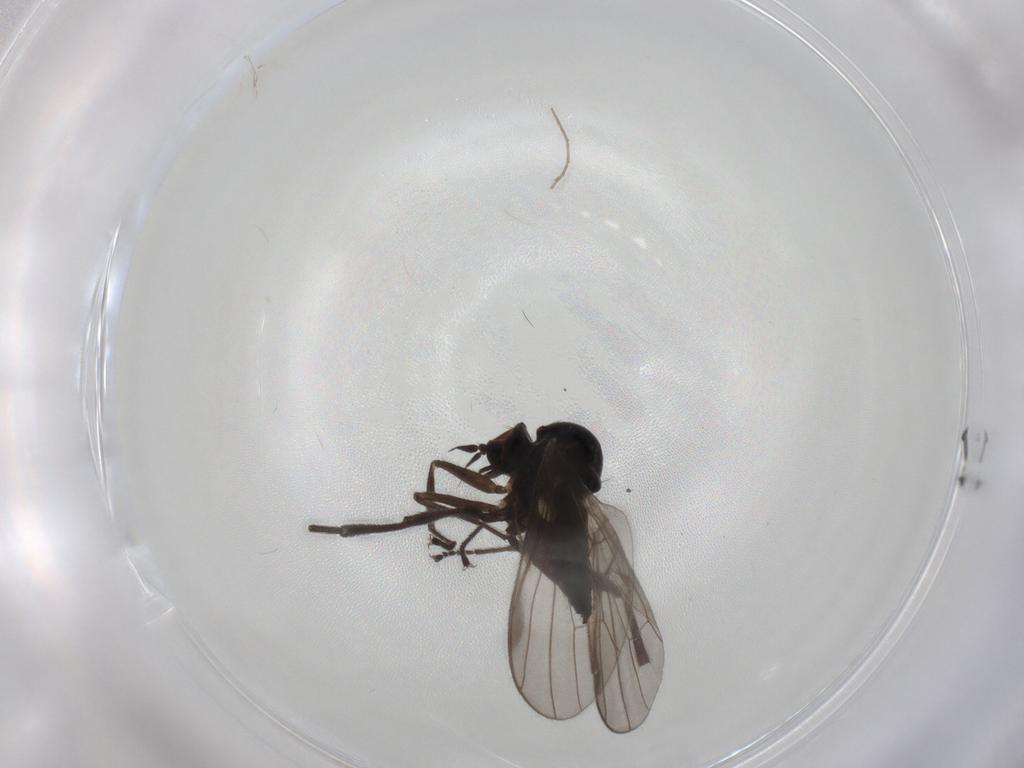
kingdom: Animalia
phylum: Arthropoda
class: Insecta
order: Diptera
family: Hybotidae
